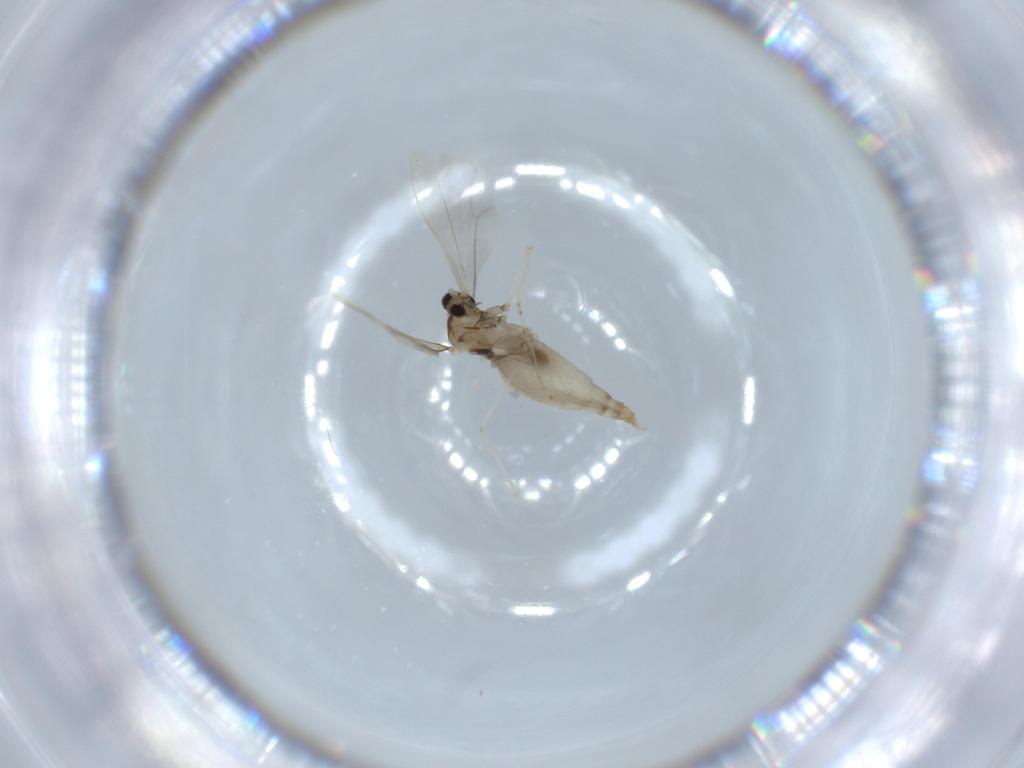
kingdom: Animalia
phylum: Arthropoda
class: Insecta
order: Diptera
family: Cecidomyiidae
